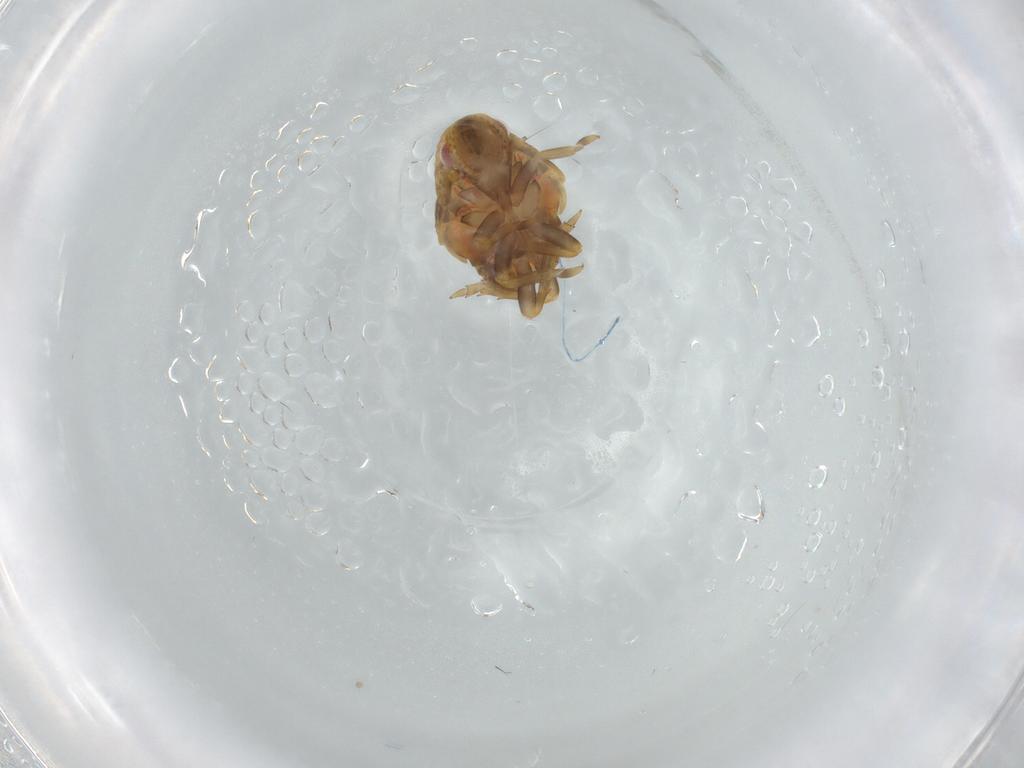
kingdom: Animalia
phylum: Arthropoda
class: Insecta
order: Hemiptera
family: Flatidae
